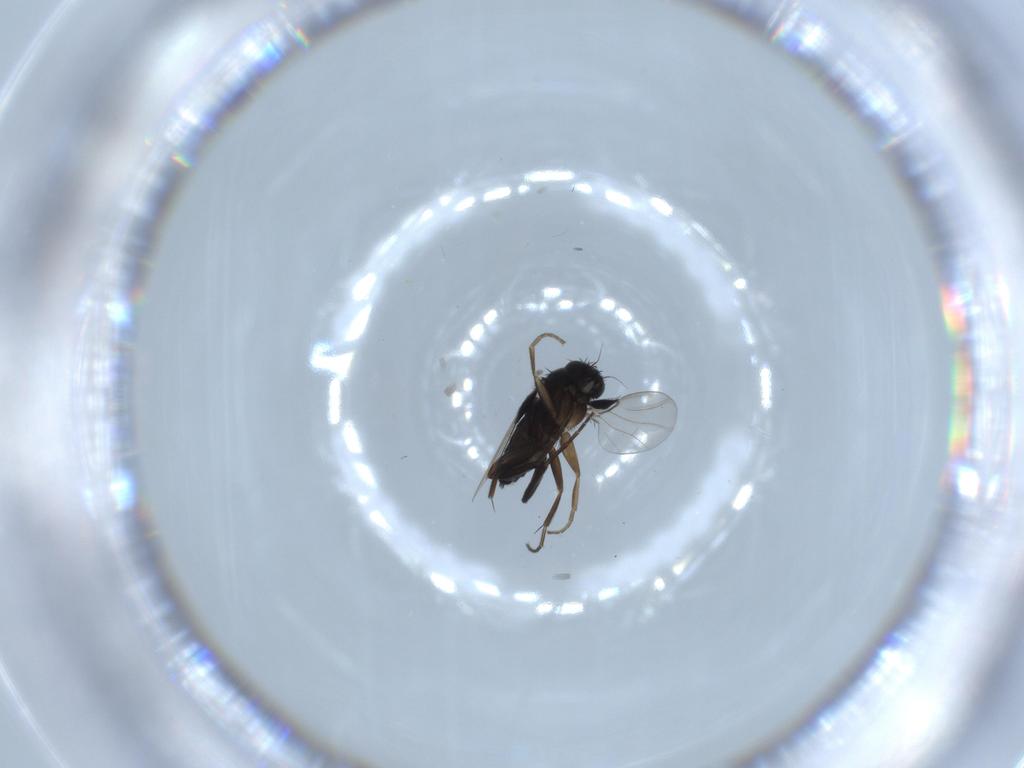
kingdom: Animalia
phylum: Arthropoda
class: Insecta
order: Diptera
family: Phoridae
